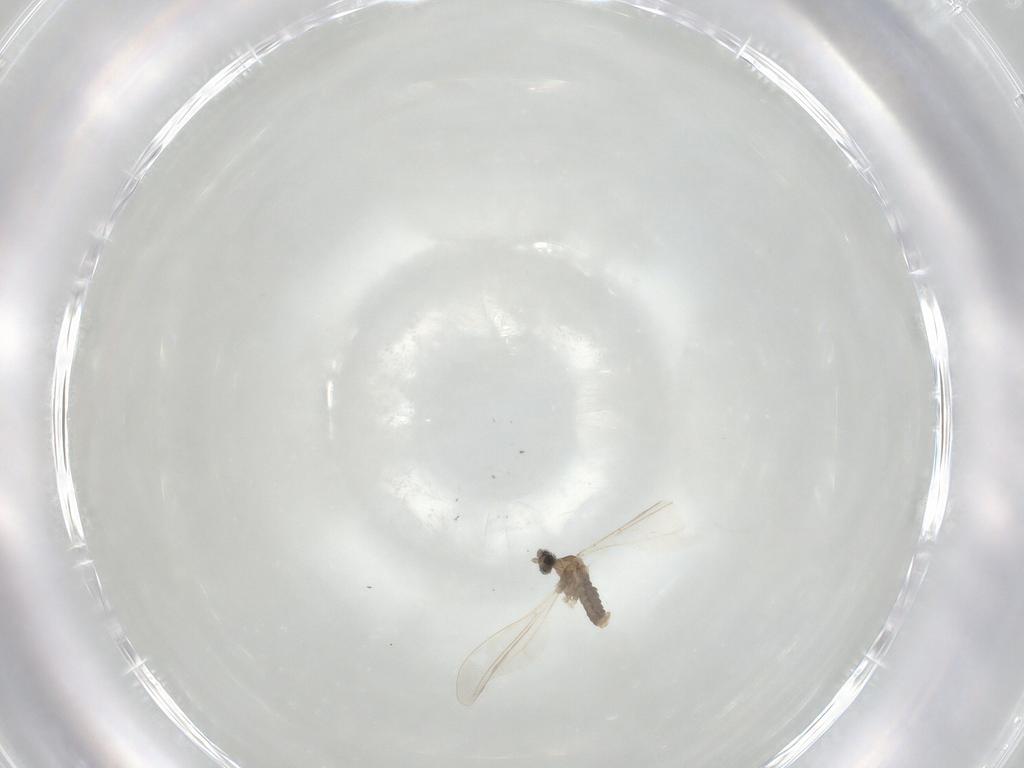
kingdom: Animalia
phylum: Arthropoda
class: Insecta
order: Diptera
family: Cecidomyiidae
